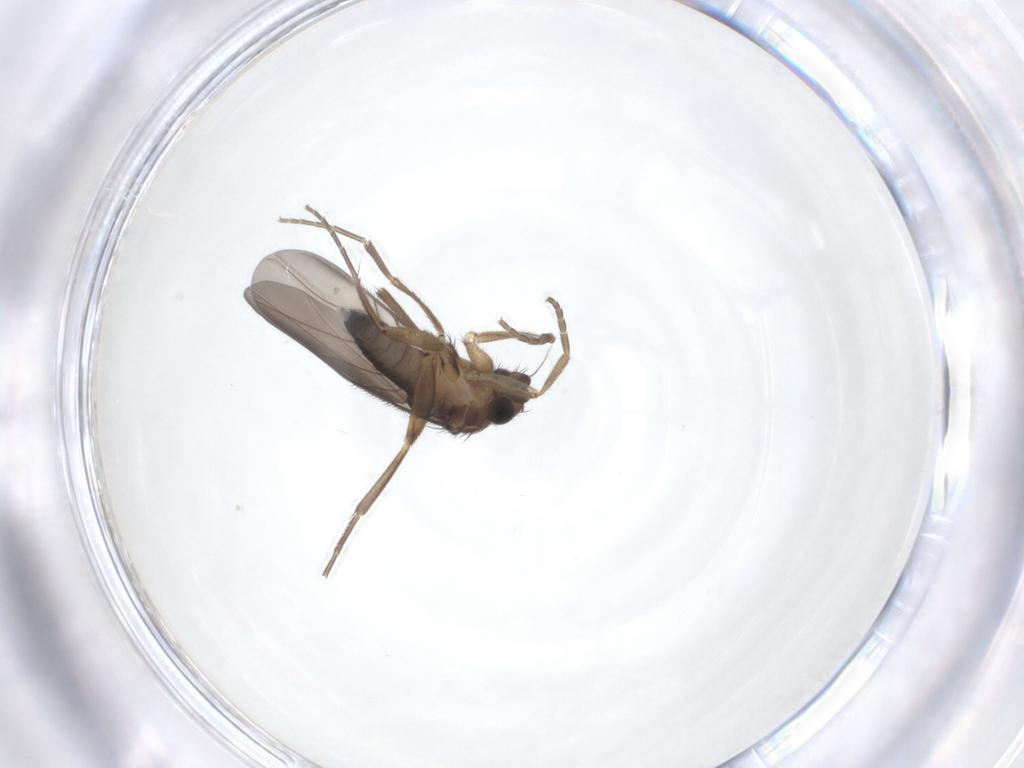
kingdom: Animalia
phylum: Arthropoda
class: Insecta
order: Diptera
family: Phoridae
